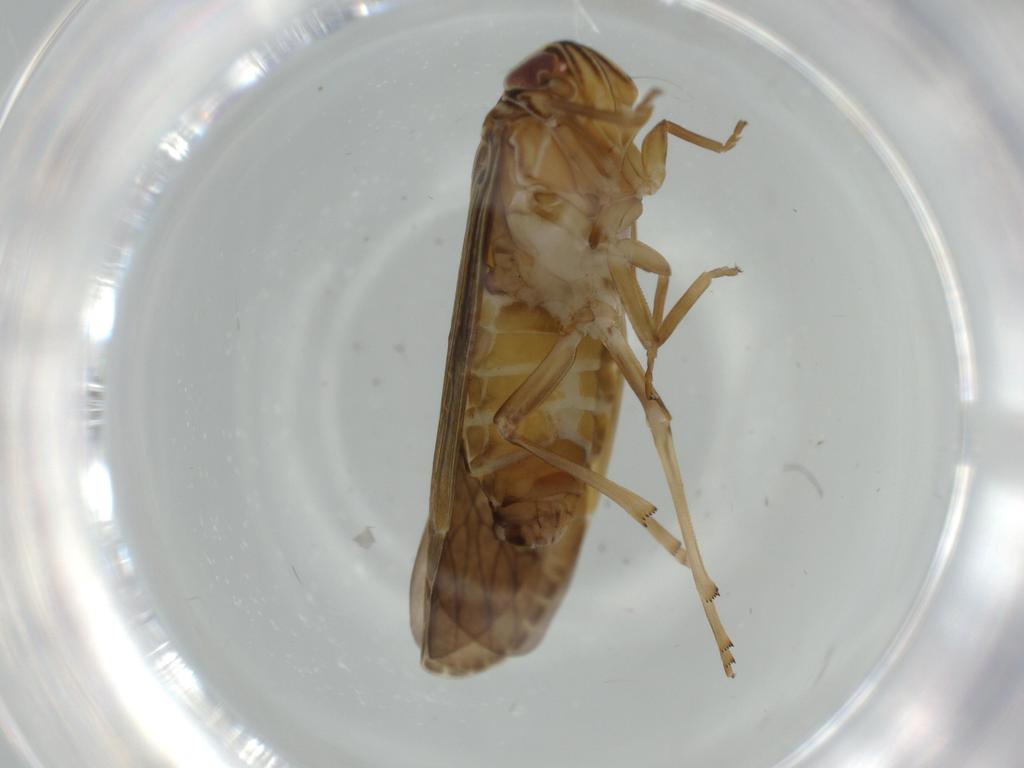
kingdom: Animalia
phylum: Arthropoda
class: Insecta
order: Hemiptera
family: Achilidae
